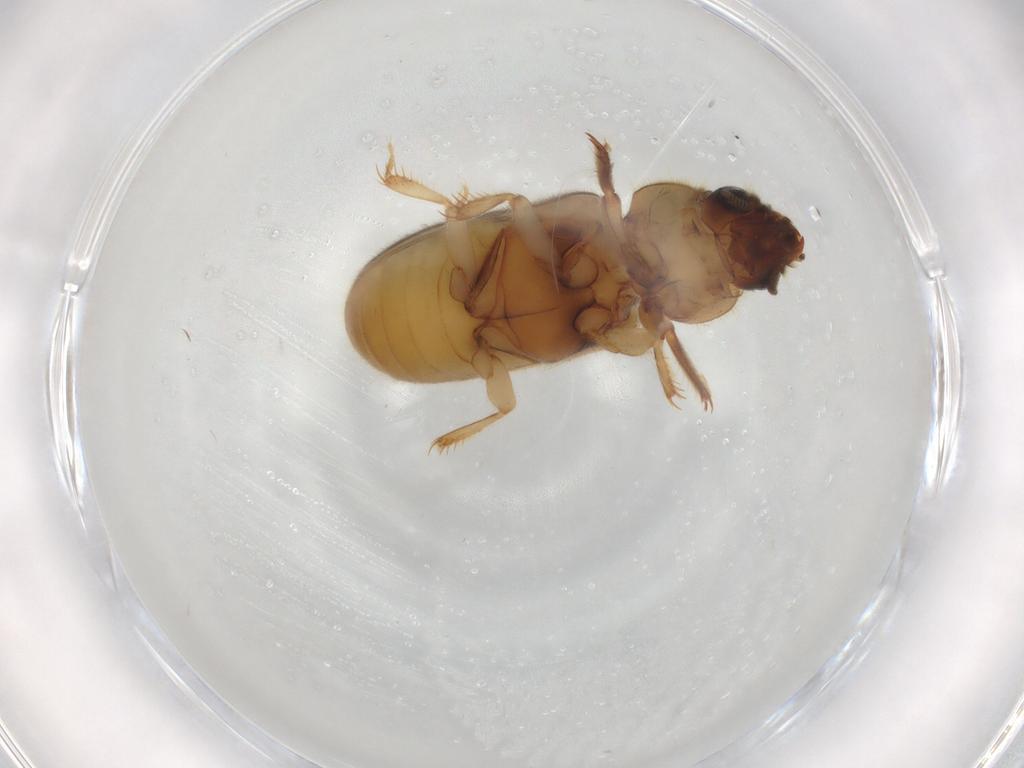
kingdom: Animalia
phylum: Arthropoda
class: Insecta
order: Coleoptera
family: Heteroceridae
